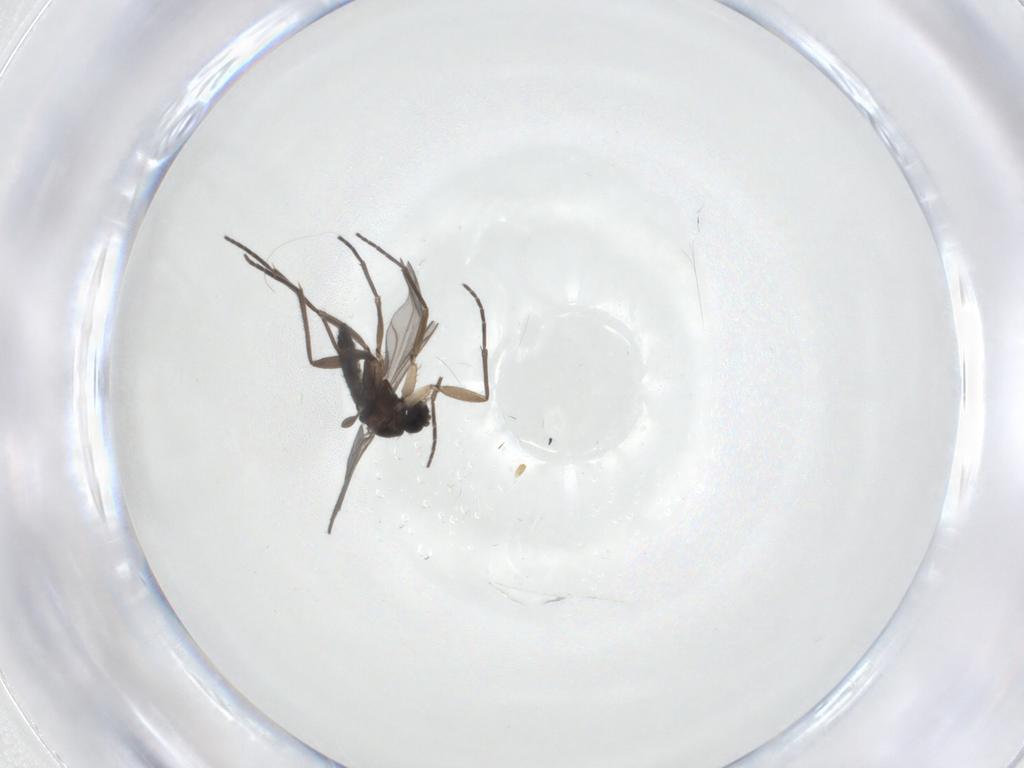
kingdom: Animalia
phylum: Arthropoda
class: Insecta
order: Diptera
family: Sciaridae
